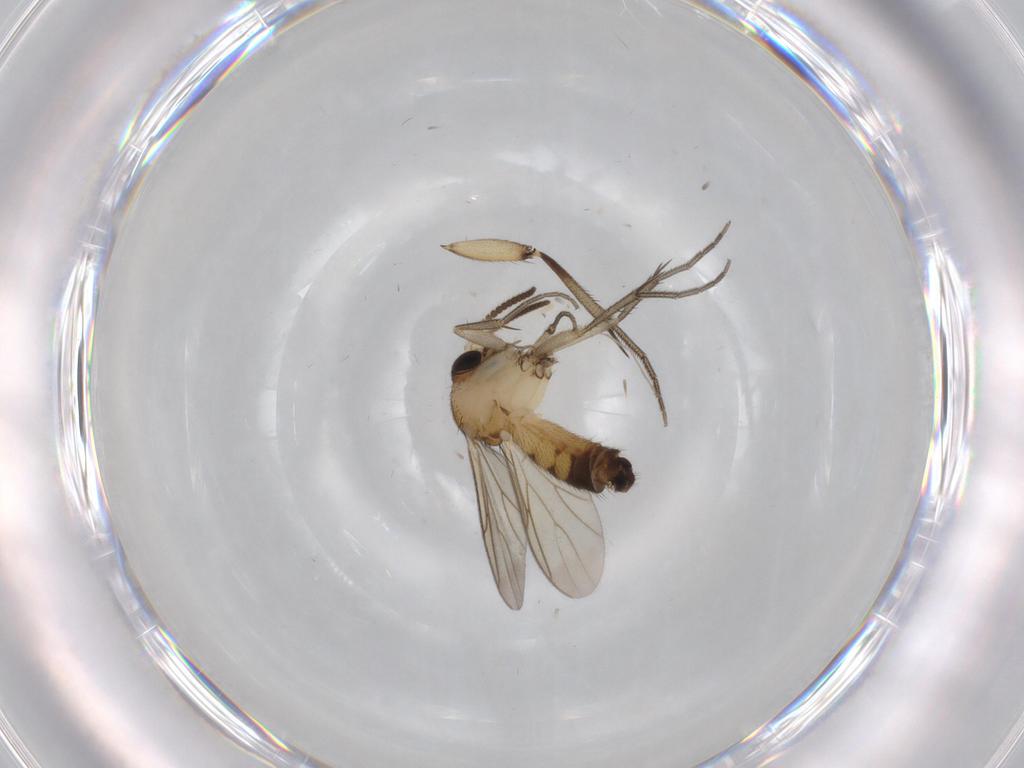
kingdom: Animalia
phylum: Arthropoda
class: Insecta
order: Diptera
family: Mycetophilidae
